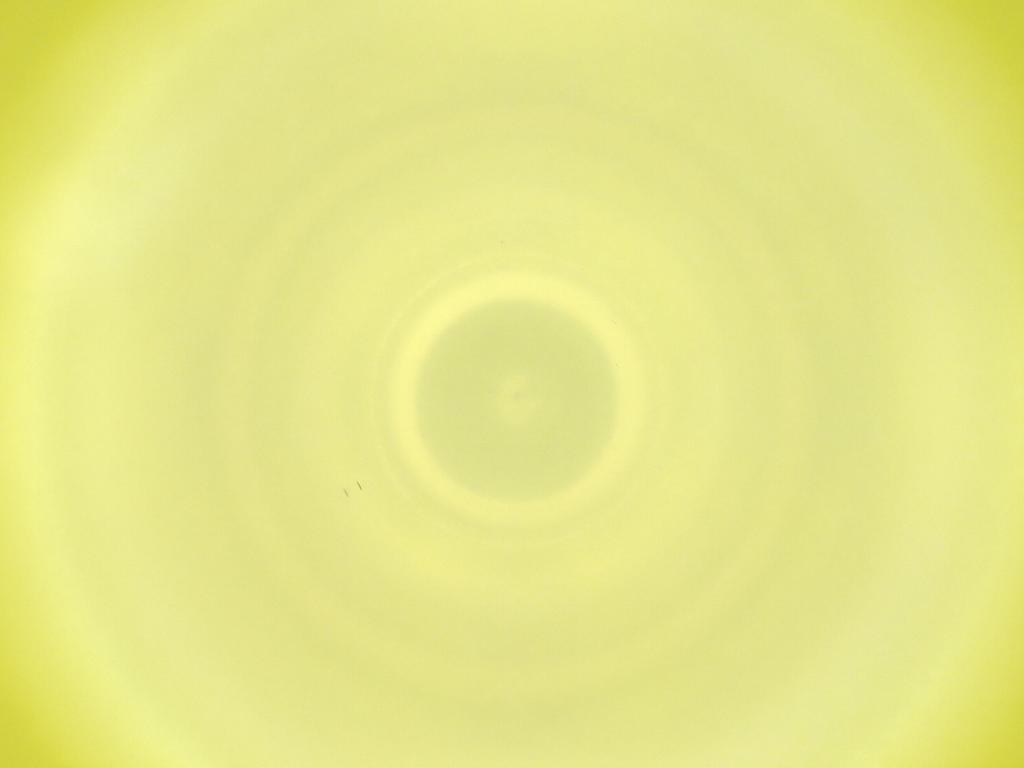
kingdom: Animalia
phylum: Arthropoda
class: Insecta
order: Diptera
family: Cecidomyiidae
